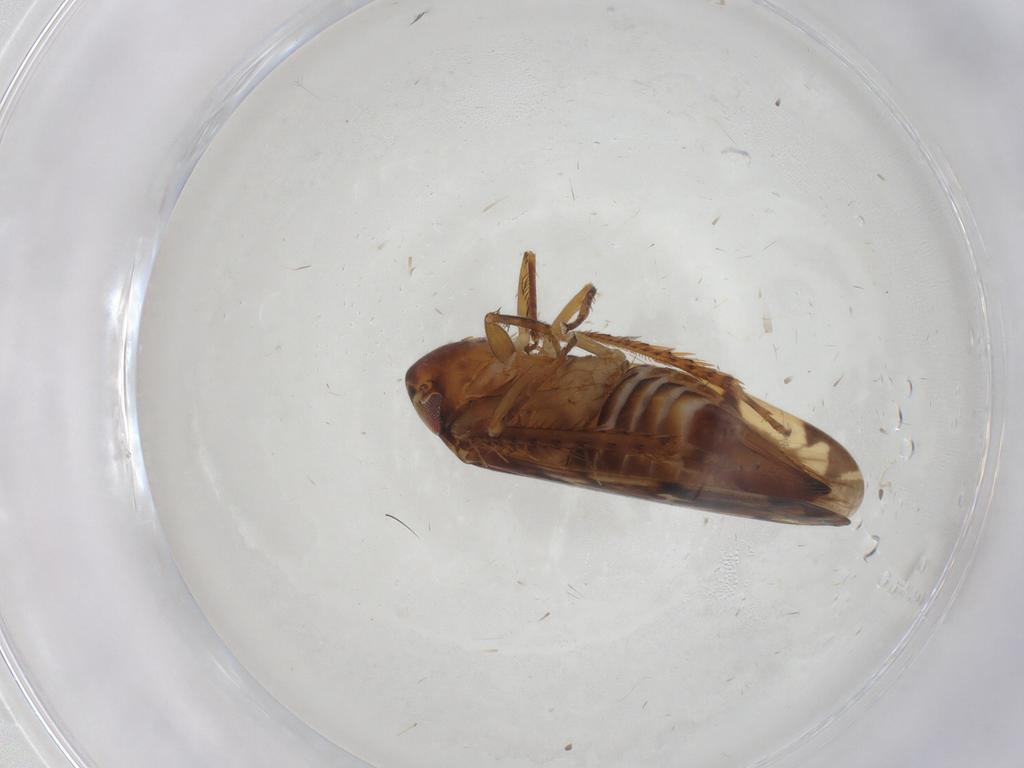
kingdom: Animalia
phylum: Arthropoda
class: Insecta
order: Hemiptera
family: Cicadellidae
